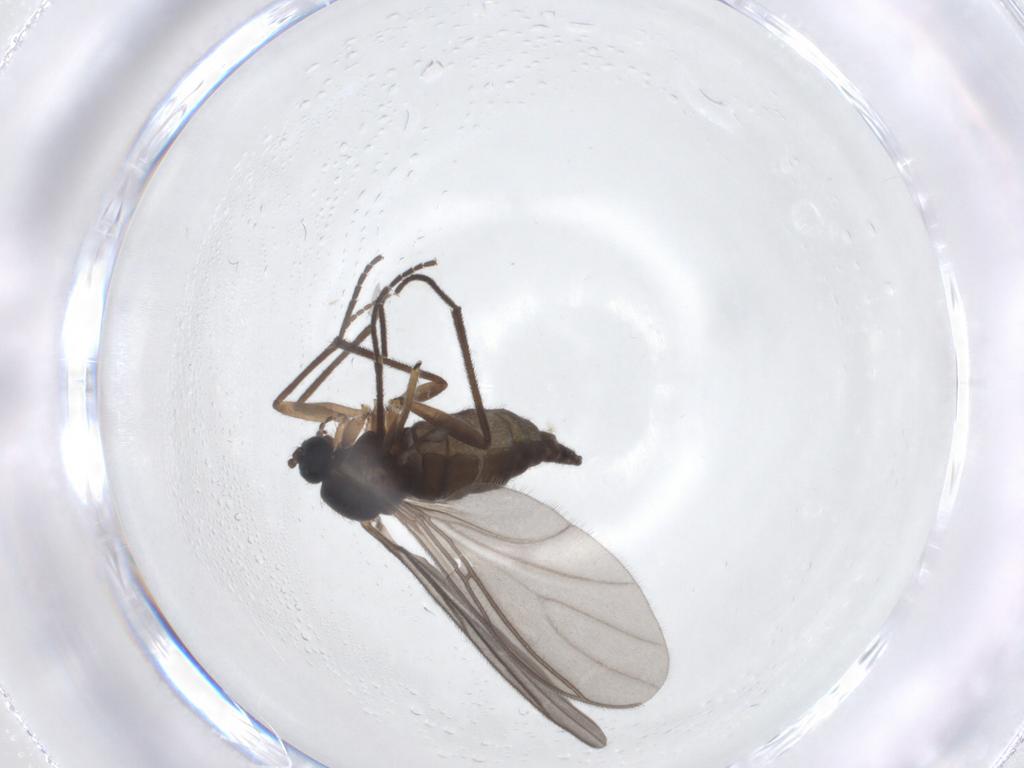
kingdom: Animalia
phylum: Arthropoda
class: Insecta
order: Diptera
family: Sciaridae
